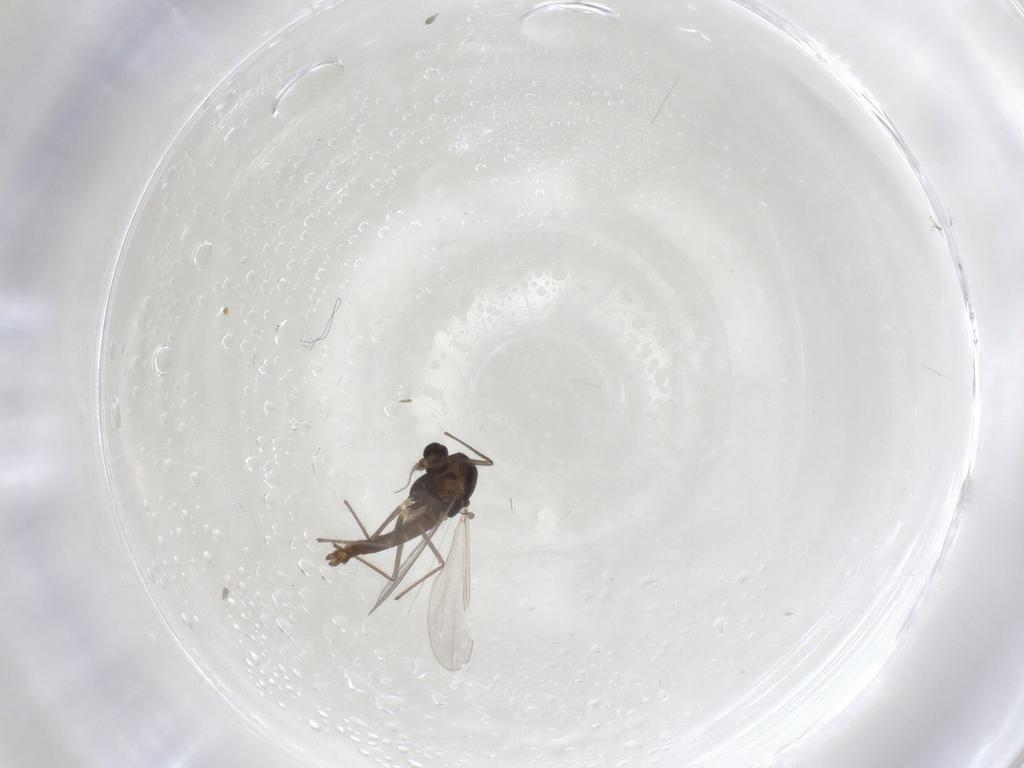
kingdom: Animalia
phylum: Arthropoda
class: Insecta
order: Diptera
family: Chironomidae
